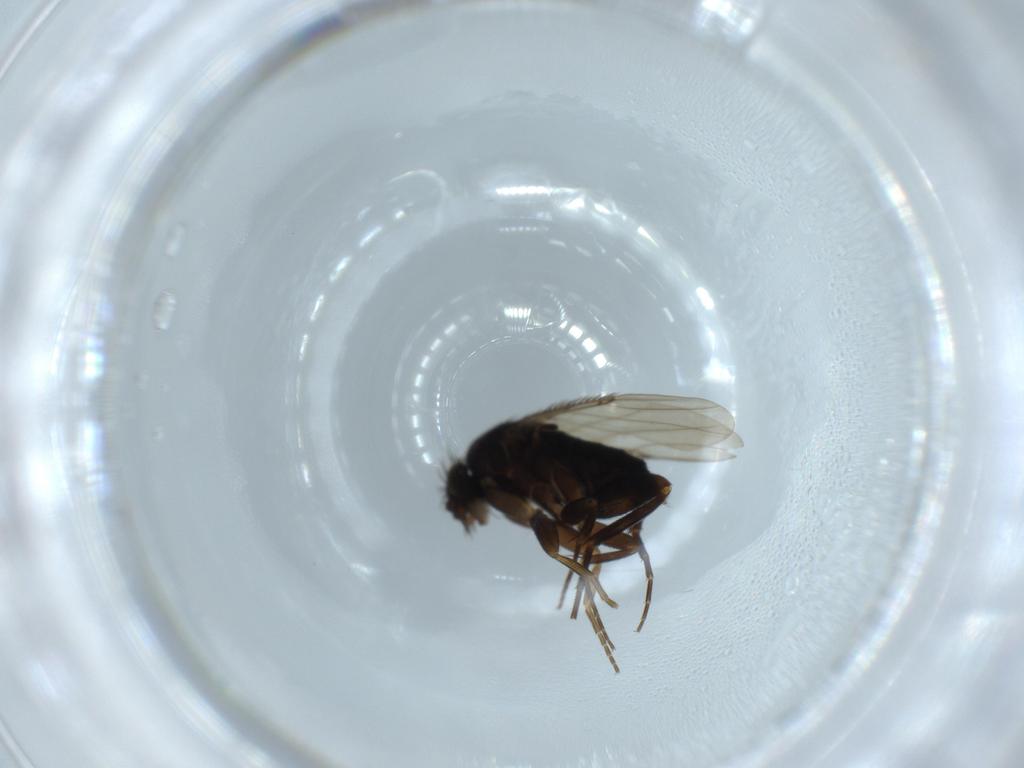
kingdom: Animalia
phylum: Arthropoda
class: Insecta
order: Diptera
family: Phoridae
